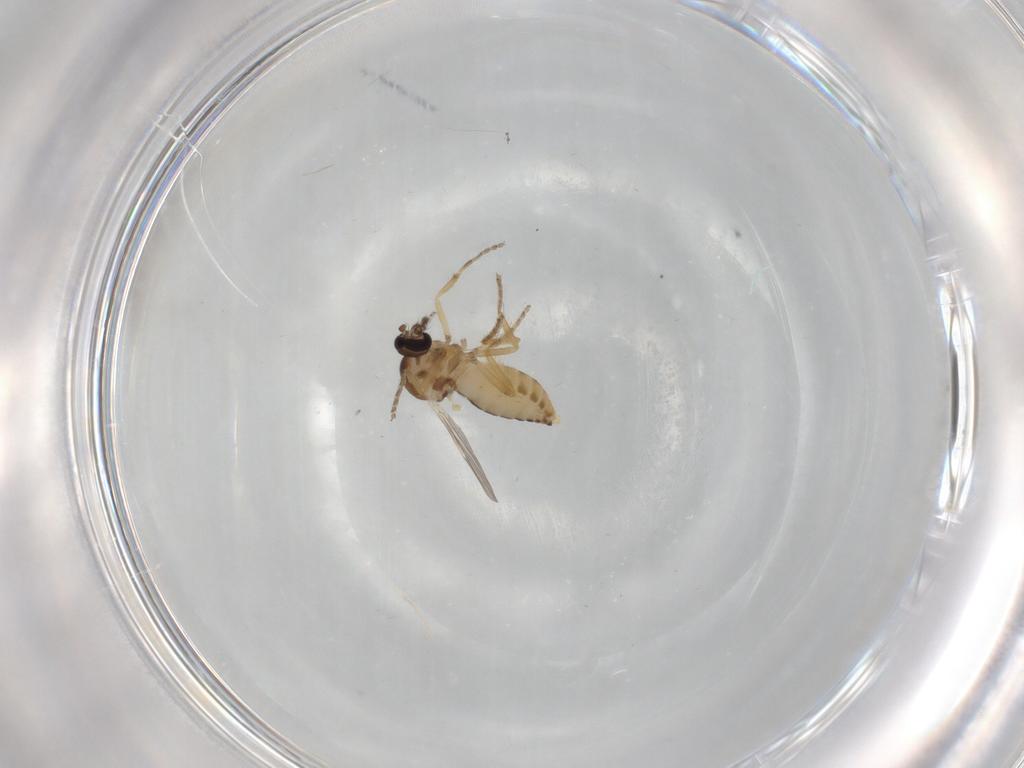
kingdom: Animalia
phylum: Arthropoda
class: Insecta
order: Diptera
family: Ceratopogonidae
